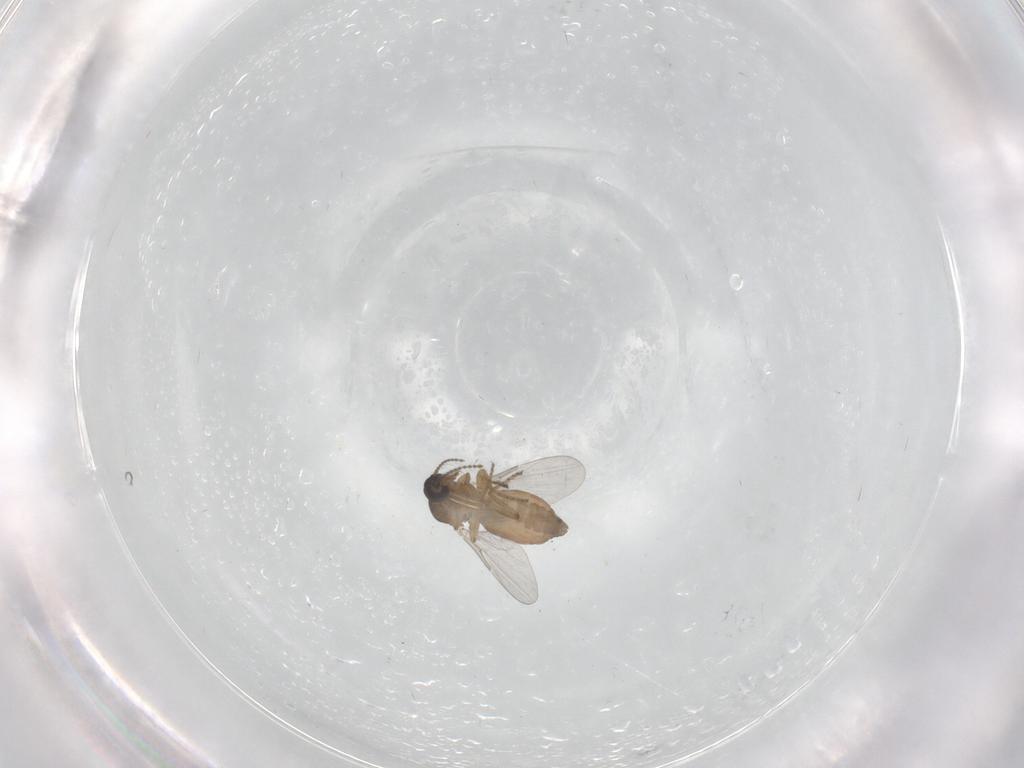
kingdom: Animalia
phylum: Arthropoda
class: Insecta
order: Diptera
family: Ceratopogonidae
